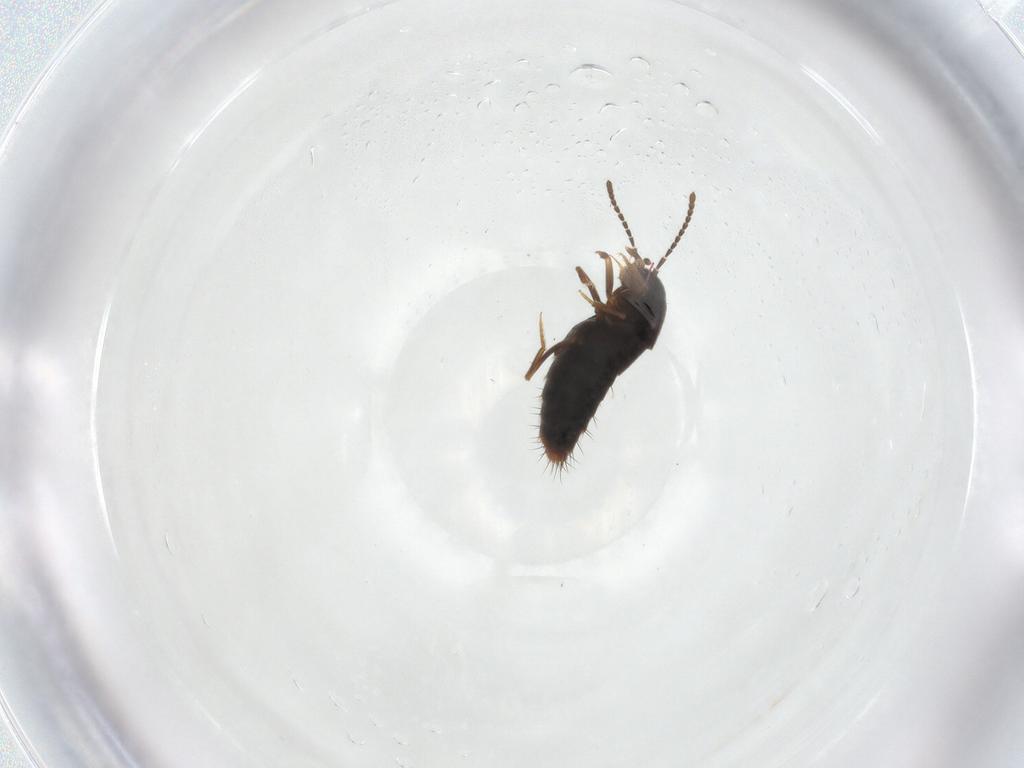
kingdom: Animalia
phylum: Arthropoda
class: Insecta
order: Coleoptera
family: Staphylinidae
